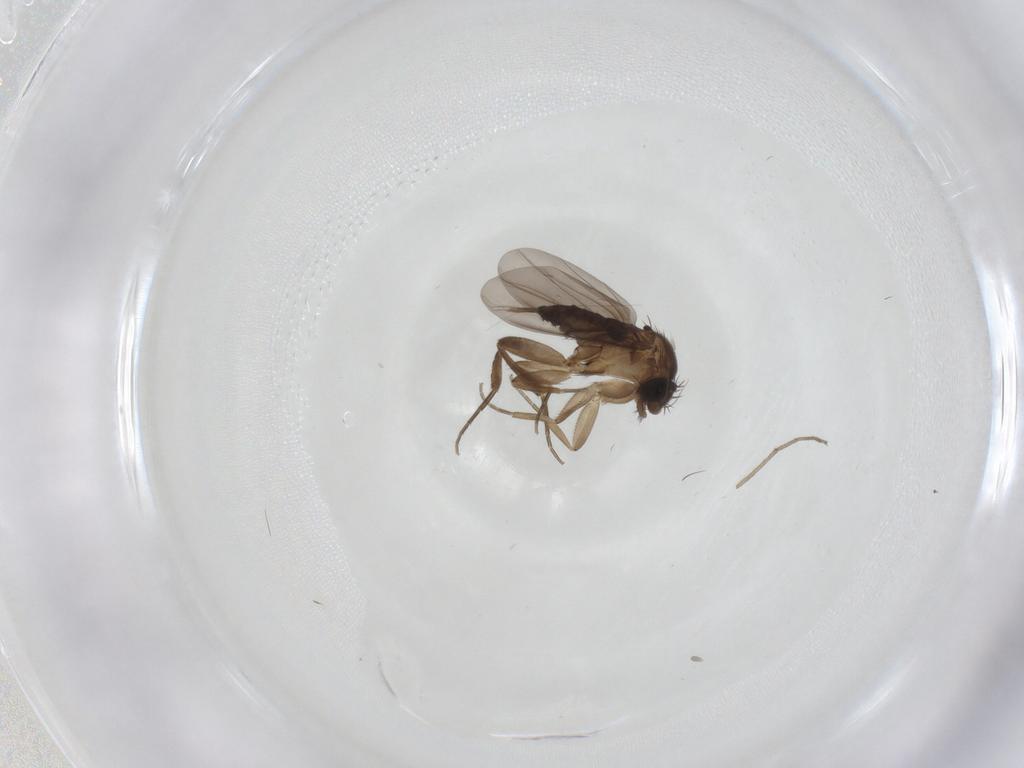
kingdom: Animalia
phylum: Arthropoda
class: Insecta
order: Diptera
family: Phoridae
